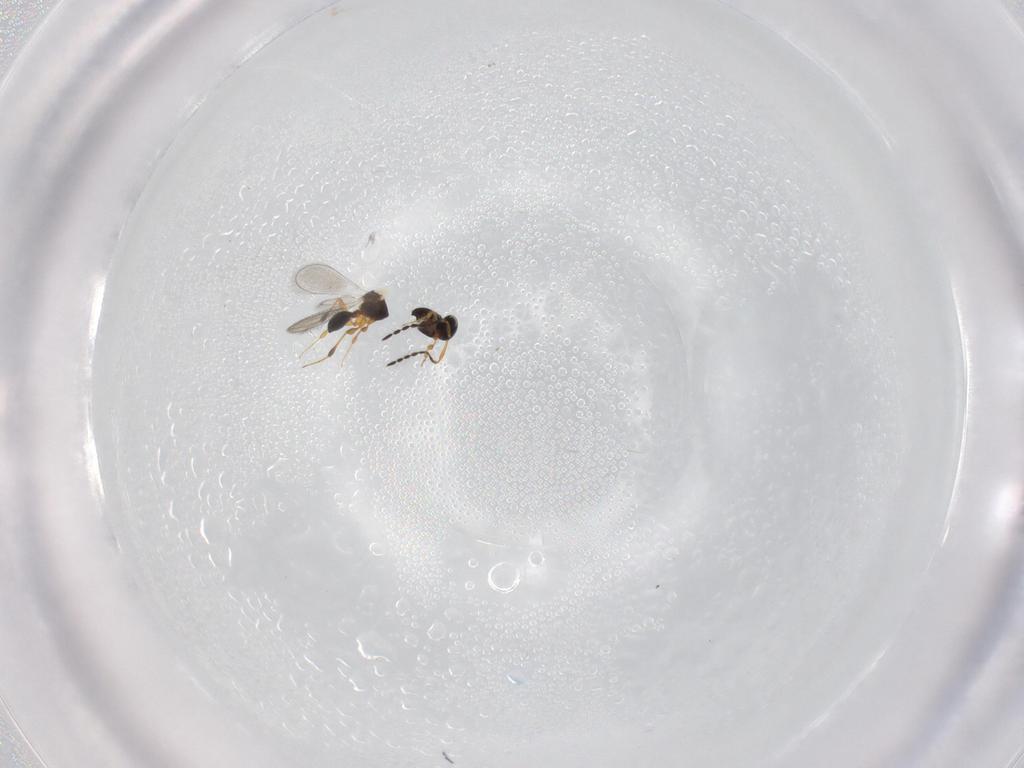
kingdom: Animalia
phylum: Arthropoda
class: Insecta
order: Hymenoptera
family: Platygastridae
